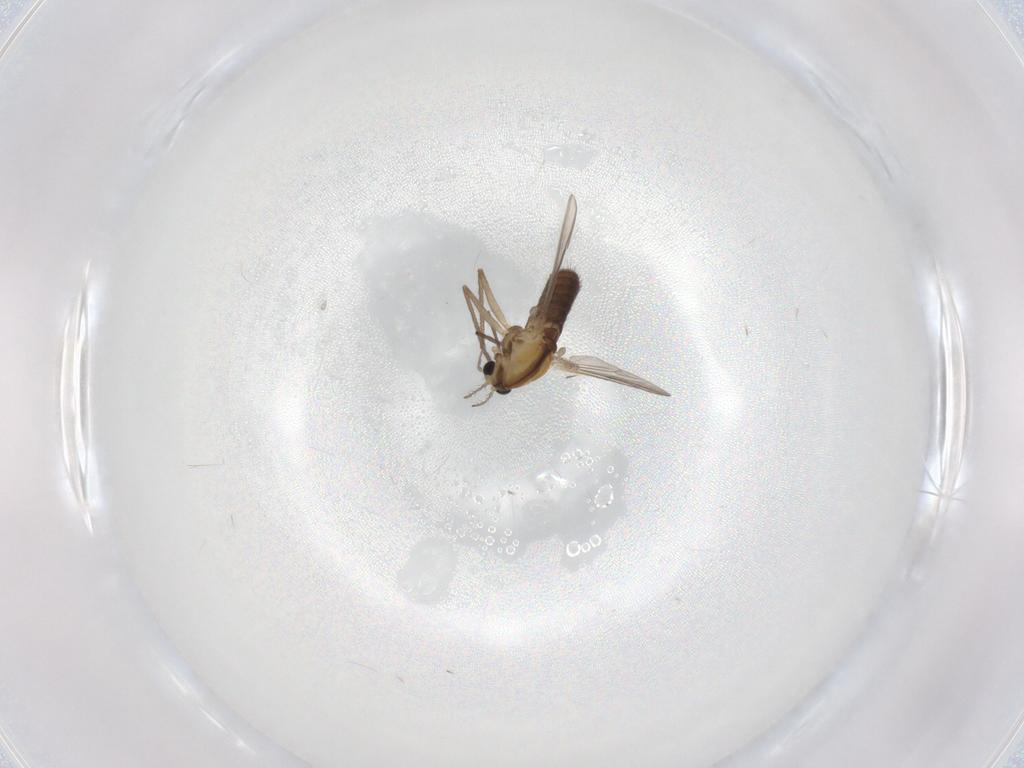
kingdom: Animalia
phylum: Arthropoda
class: Insecta
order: Diptera
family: Chironomidae
